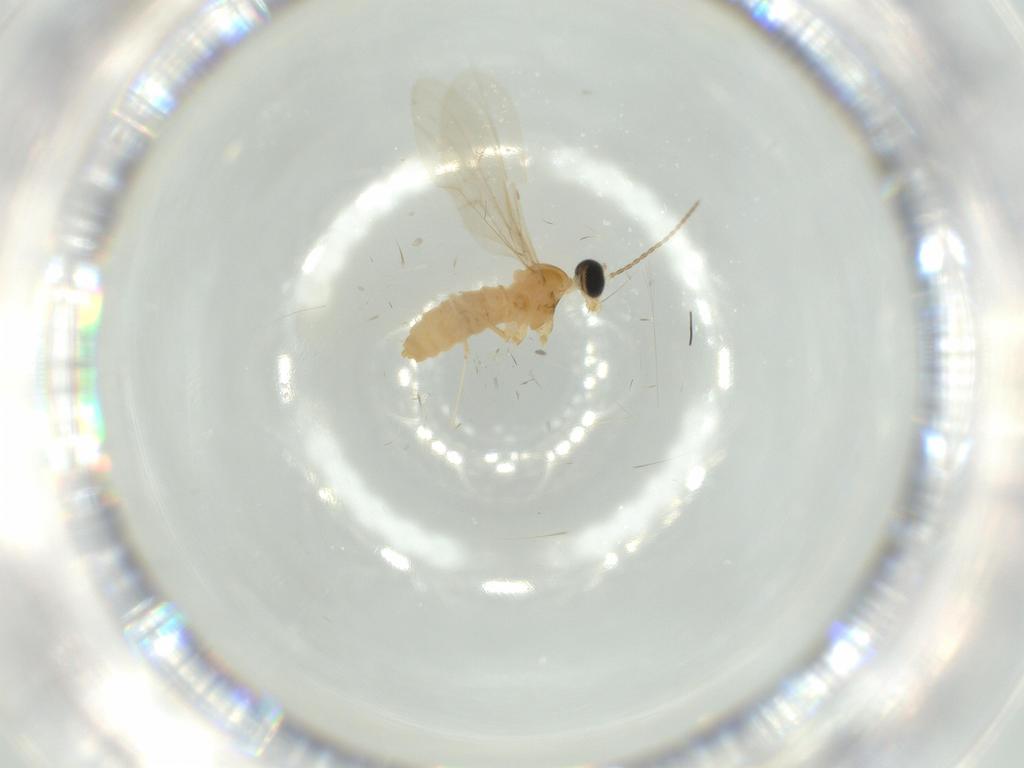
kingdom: Animalia
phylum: Arthropoda
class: Insecta
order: Diptera
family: Cecidomyiidae
